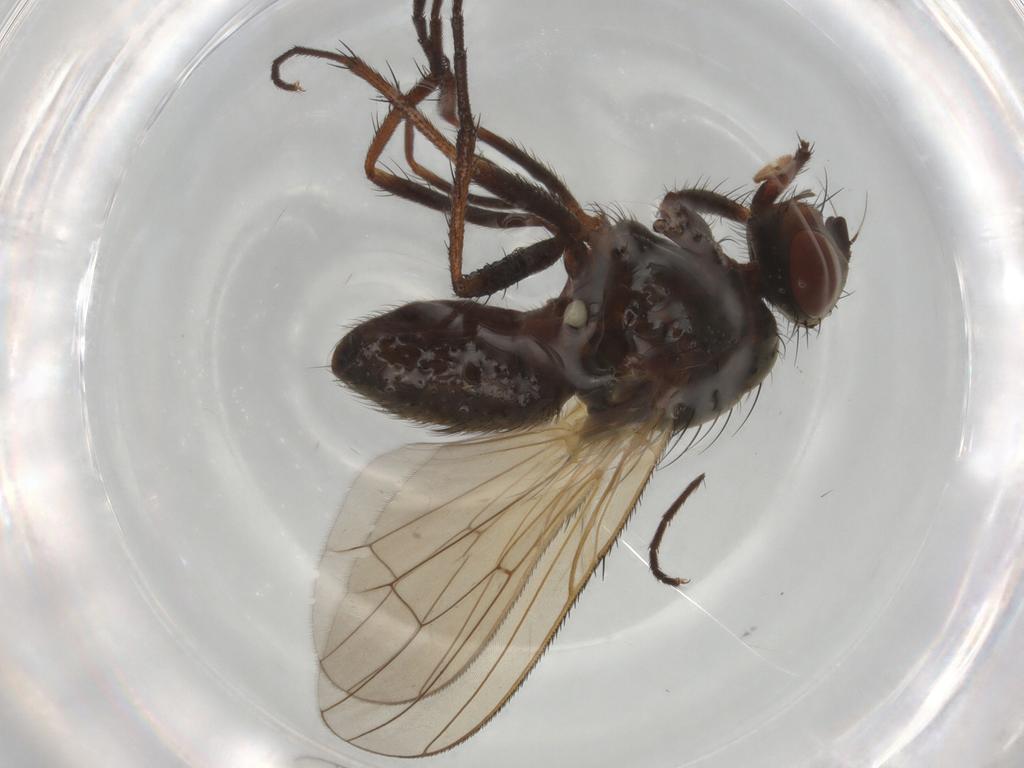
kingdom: Animalia
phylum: Arthropoda
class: Insecta
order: Diptera
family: Anthomyiidae
